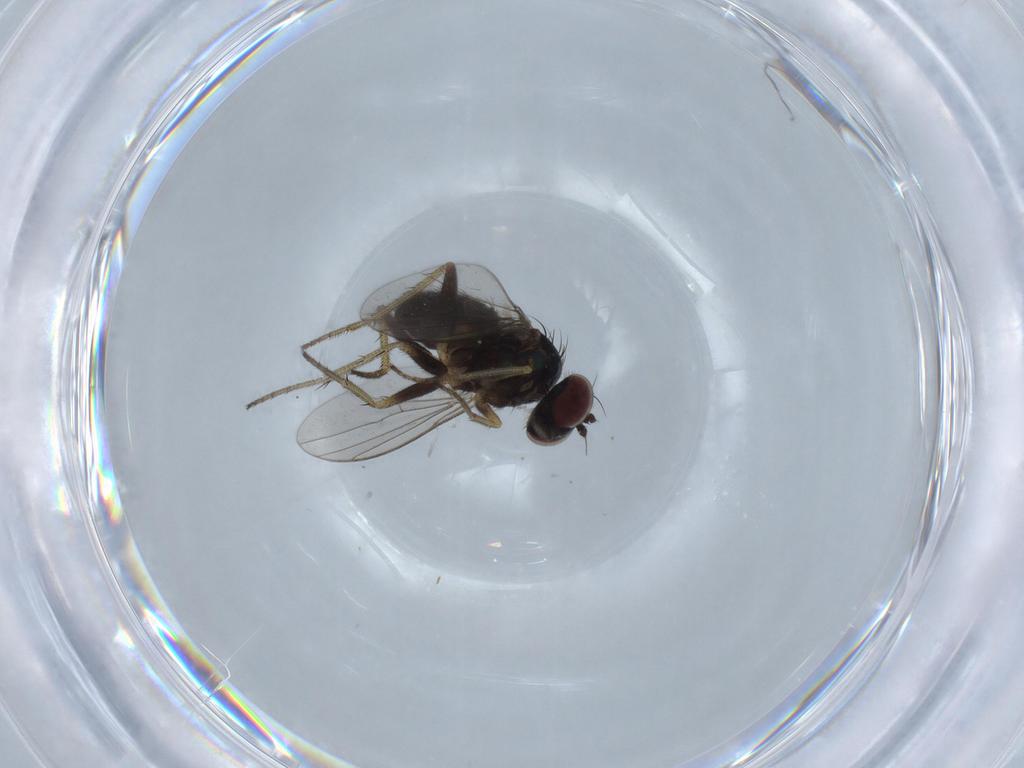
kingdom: Animalia
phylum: Arthropoda
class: Insecta
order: Diptera
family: Dolichopodidae
